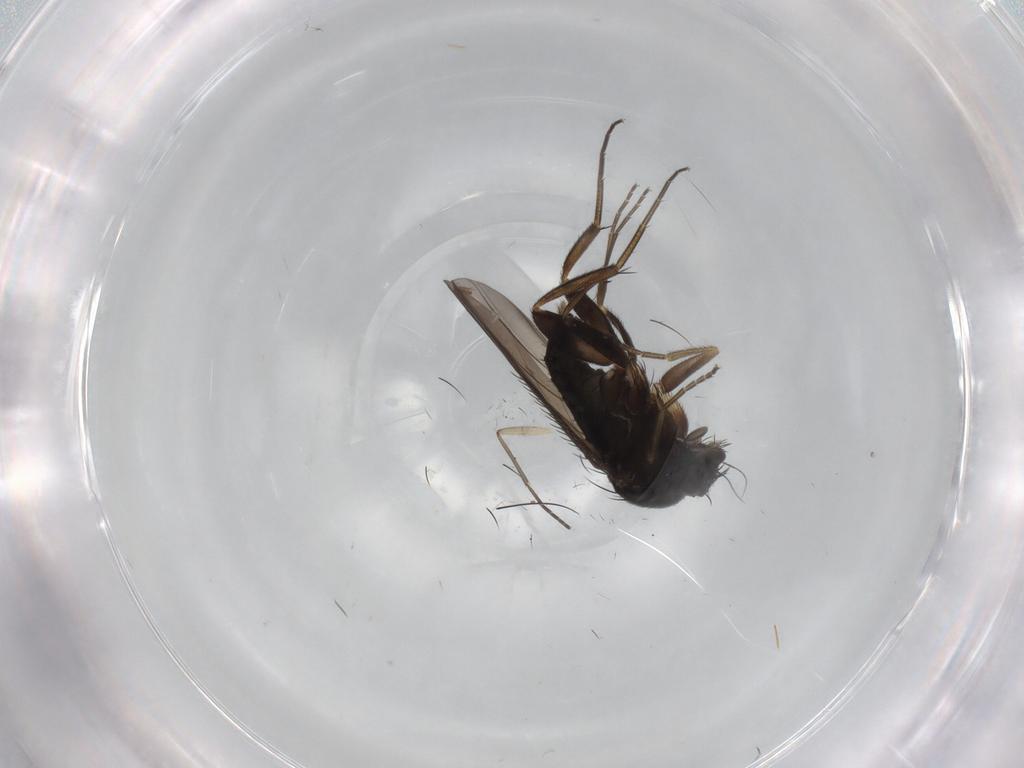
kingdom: Animalia
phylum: Arthropoda
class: Insecta
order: Diptera
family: Phoridae
